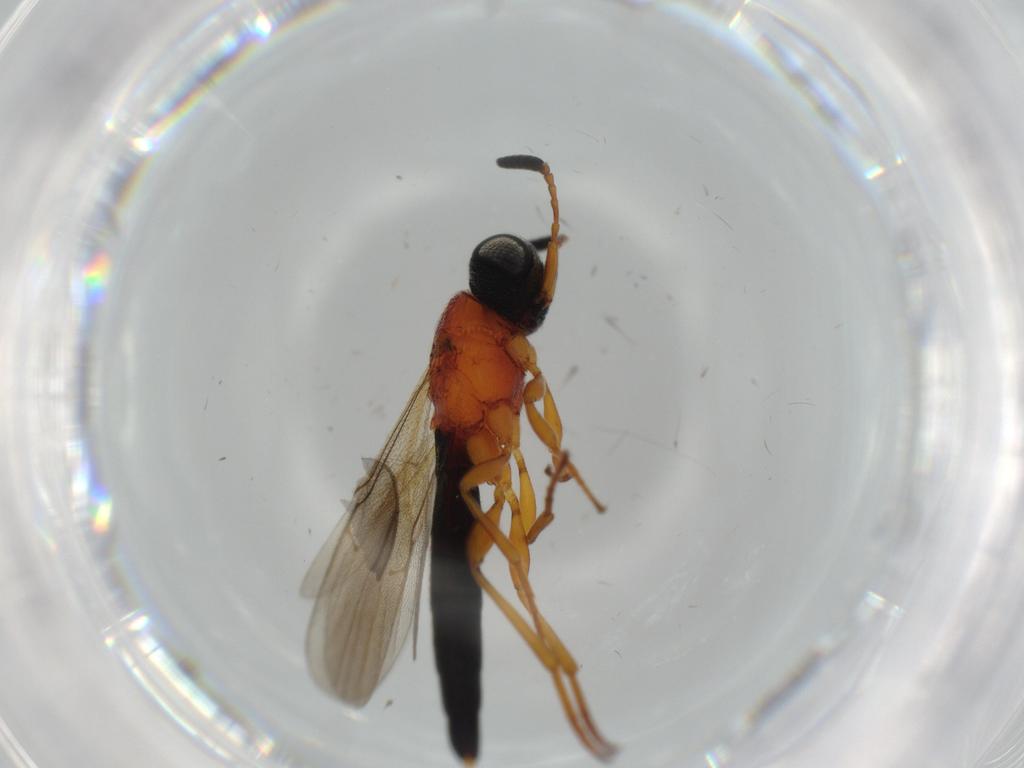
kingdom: Animalia
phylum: Arthropoda
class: Insecta
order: Hymenoptera
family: Scelionidae
